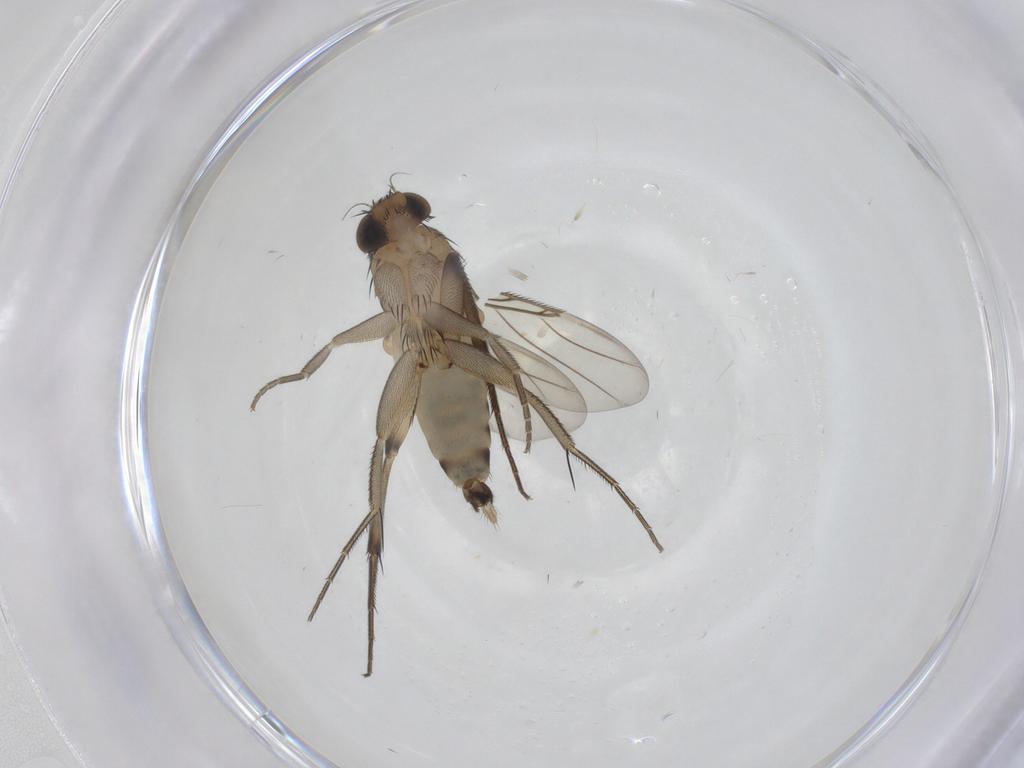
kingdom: Animalia
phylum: Arthropoda
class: Insecta
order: Diptera
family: Phoridae
